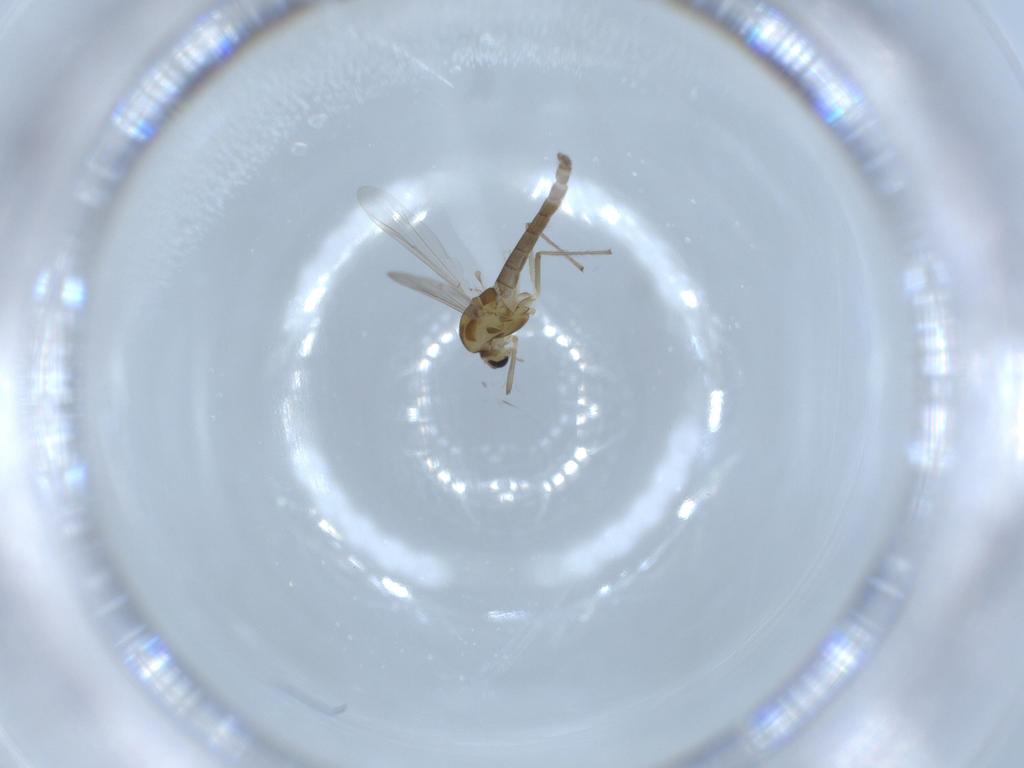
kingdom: Animalia
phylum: Arthropoda
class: Insecta
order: Diptera
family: Chironomidae
